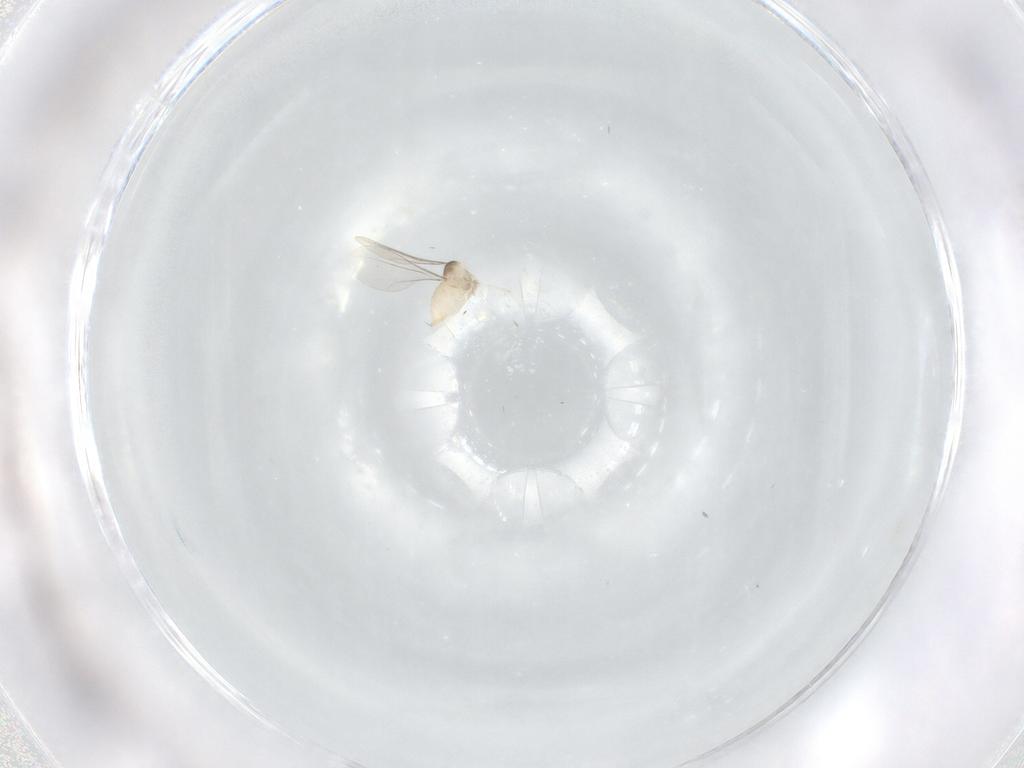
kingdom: Animalia
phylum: Arthropoda
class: Insecta
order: Diptera
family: Cecidomyiidae
